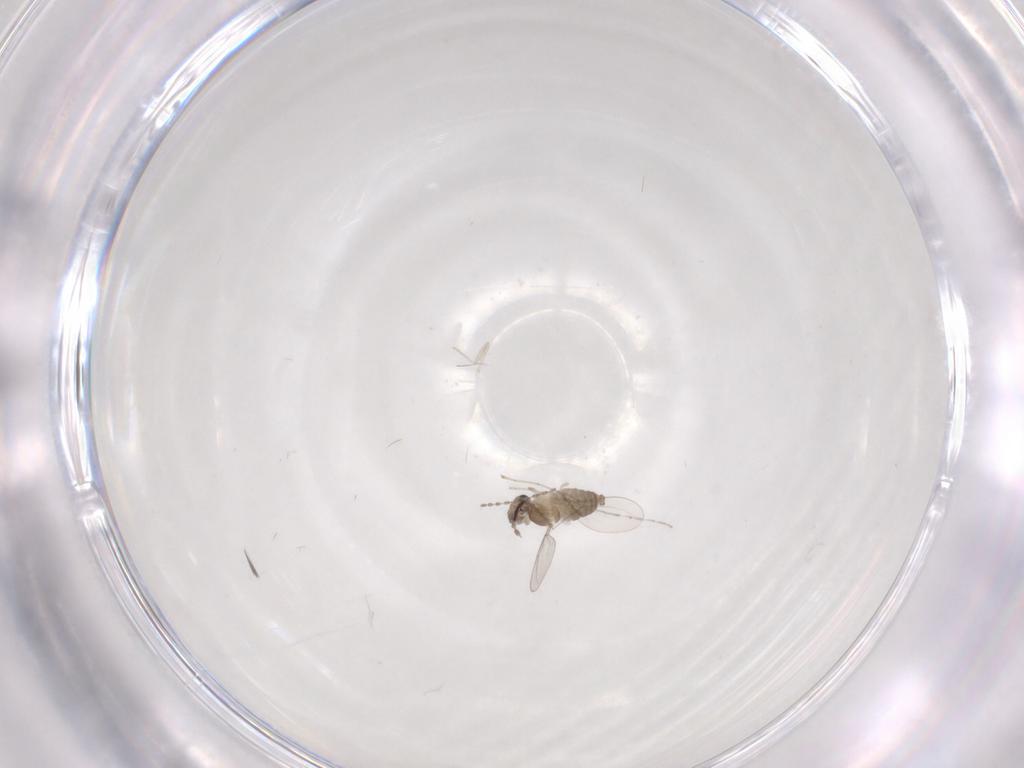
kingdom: Animalia
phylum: Arthropoda
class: Insecta
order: Diptera
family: Cecidomyiidae
